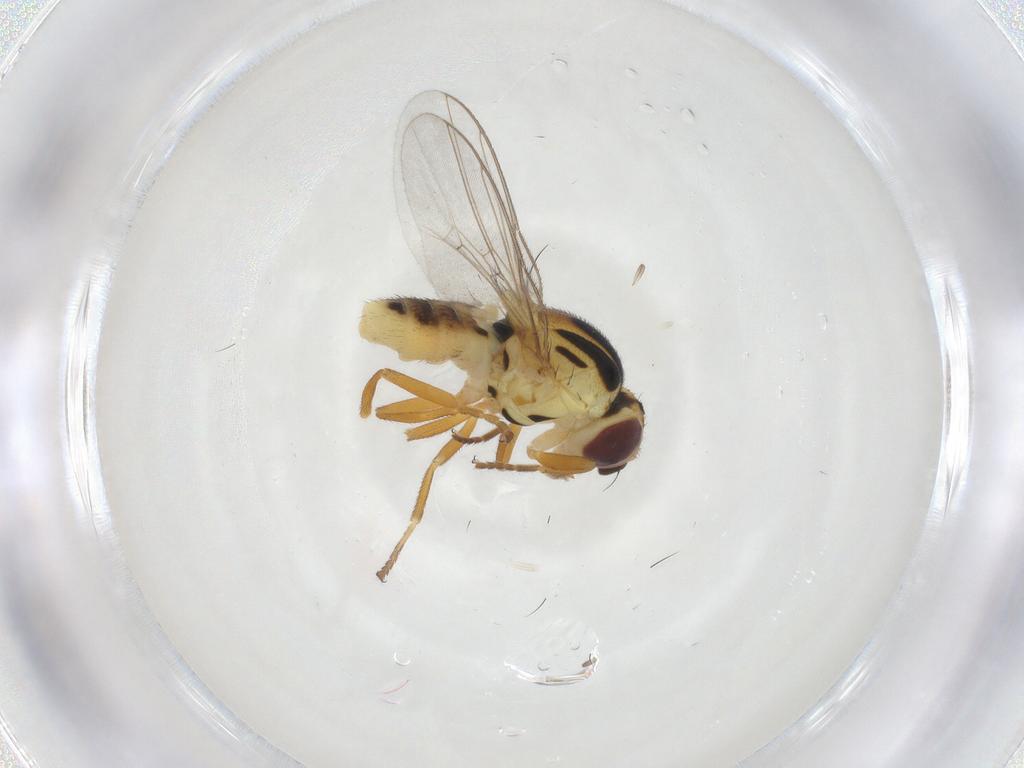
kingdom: Animalia
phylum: Arthropoda
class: Insecta
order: Diptera
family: Chloropidae
